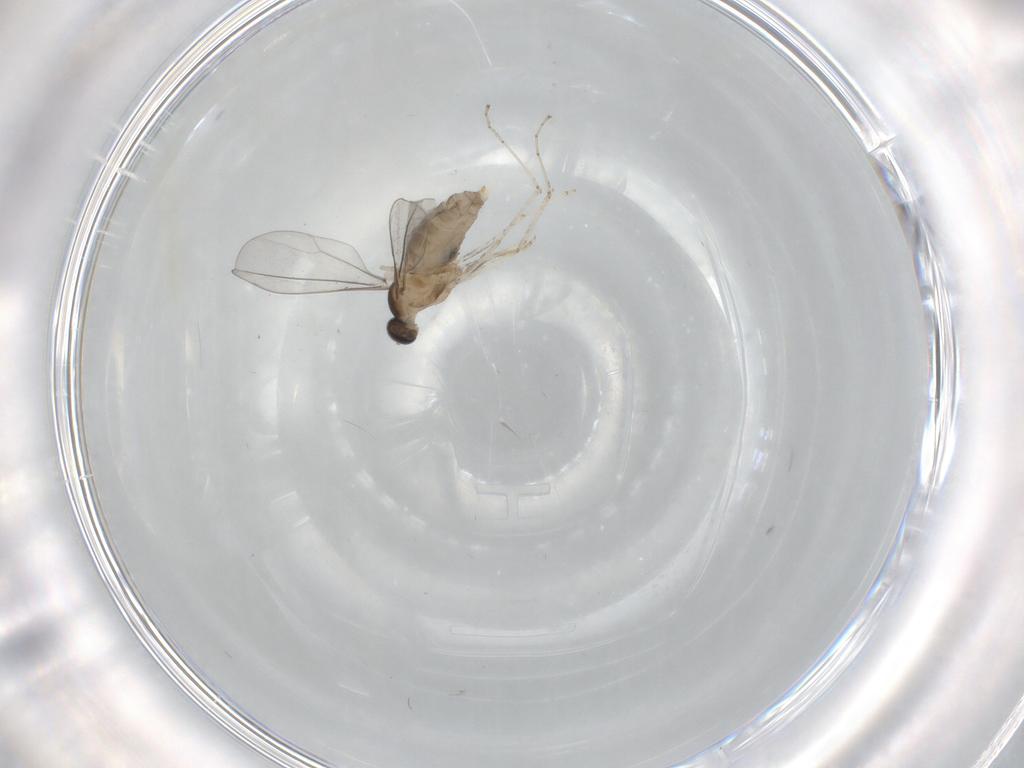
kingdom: Animalia
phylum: Arthropoda
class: Insecta
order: Diptera
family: Cecidomyiidae
